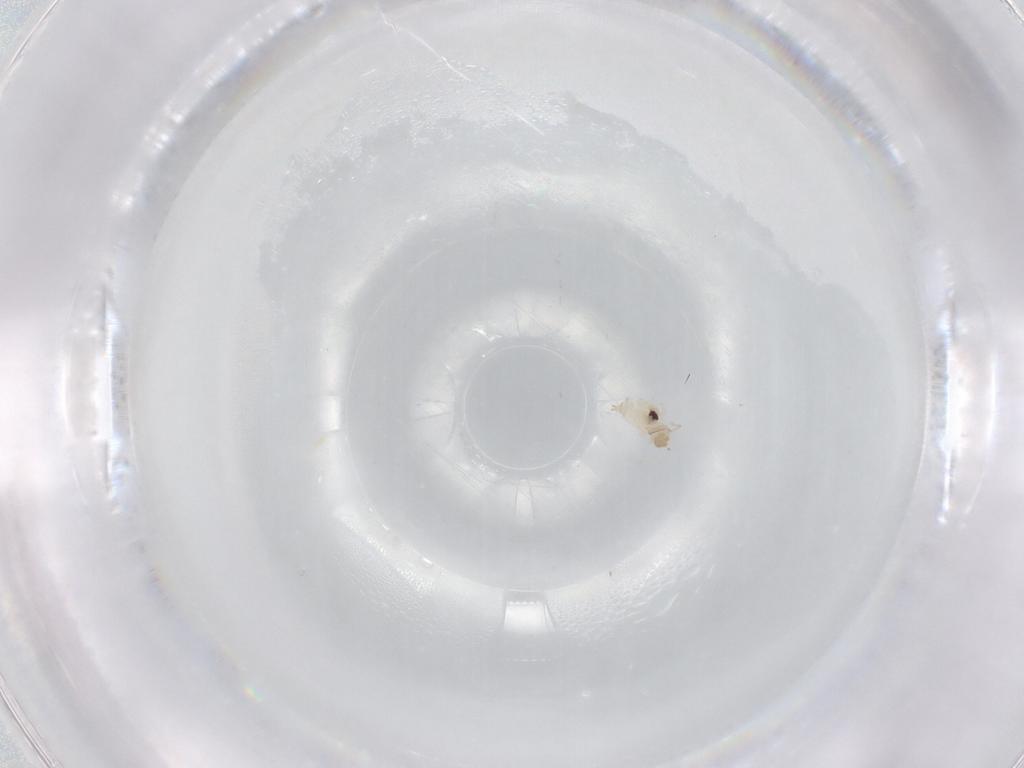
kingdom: Animalia
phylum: Arthropoda
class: Insecta
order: Diptera
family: Cecidomyiidae
